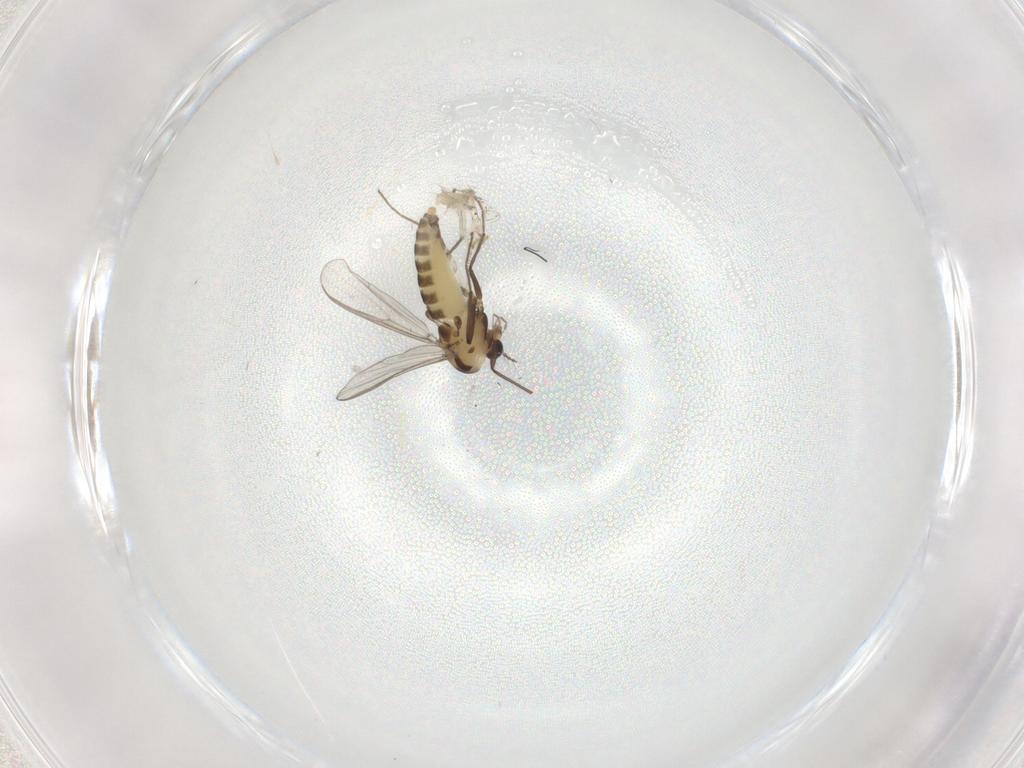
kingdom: Animalia
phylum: Arthropoda
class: Insecta
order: Diptera
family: Chironomidae
